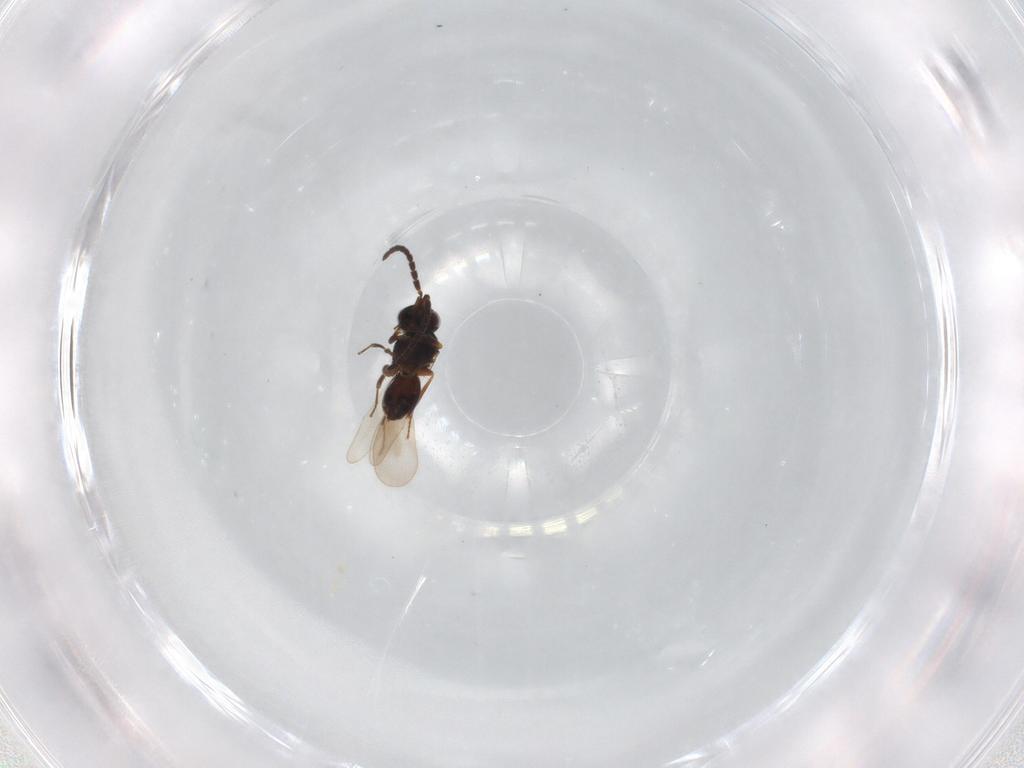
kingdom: Animalia
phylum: Arthropoda
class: Insecta
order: Hymenoptera
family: Ceraphronidae
